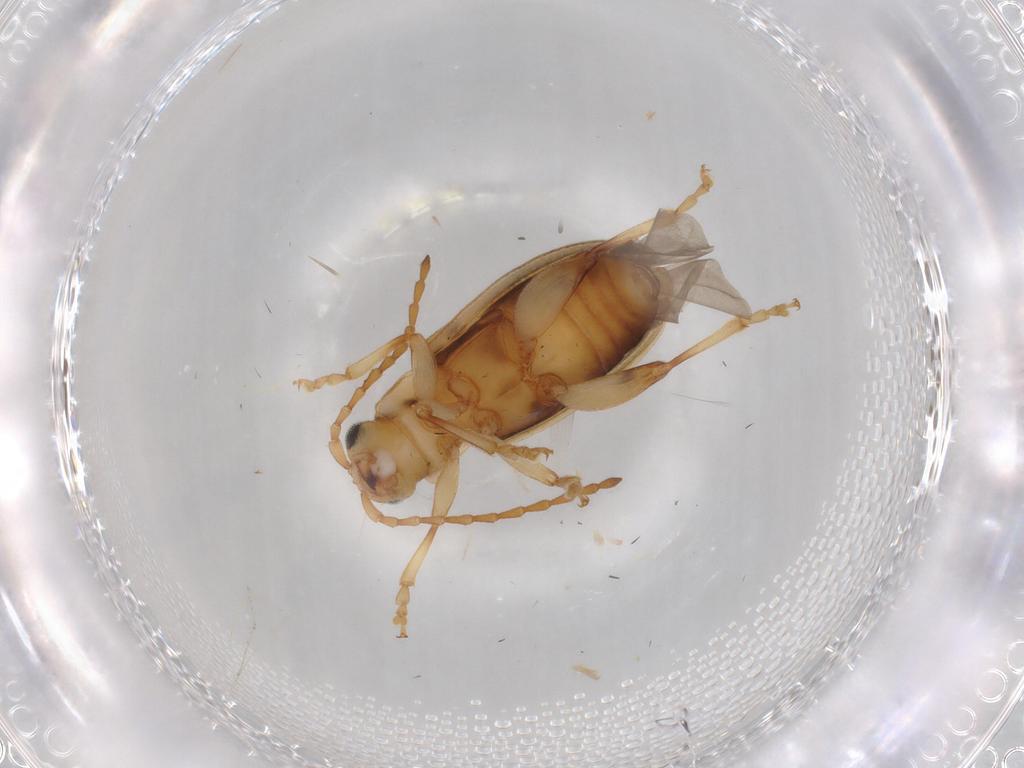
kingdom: Animalia
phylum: Arthropoda
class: Insecta
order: Coleoptera
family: Chrysomelidae
